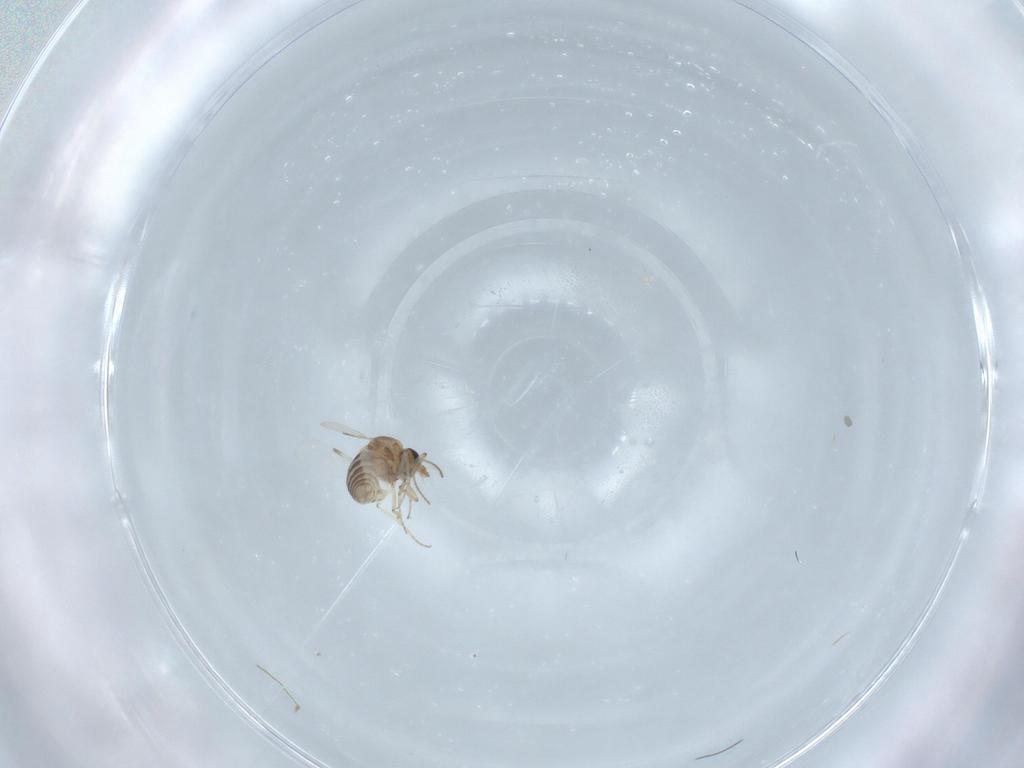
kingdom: Animalia
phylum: Arthropoda
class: Insecta
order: Diptera
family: Ceratopogonidae
